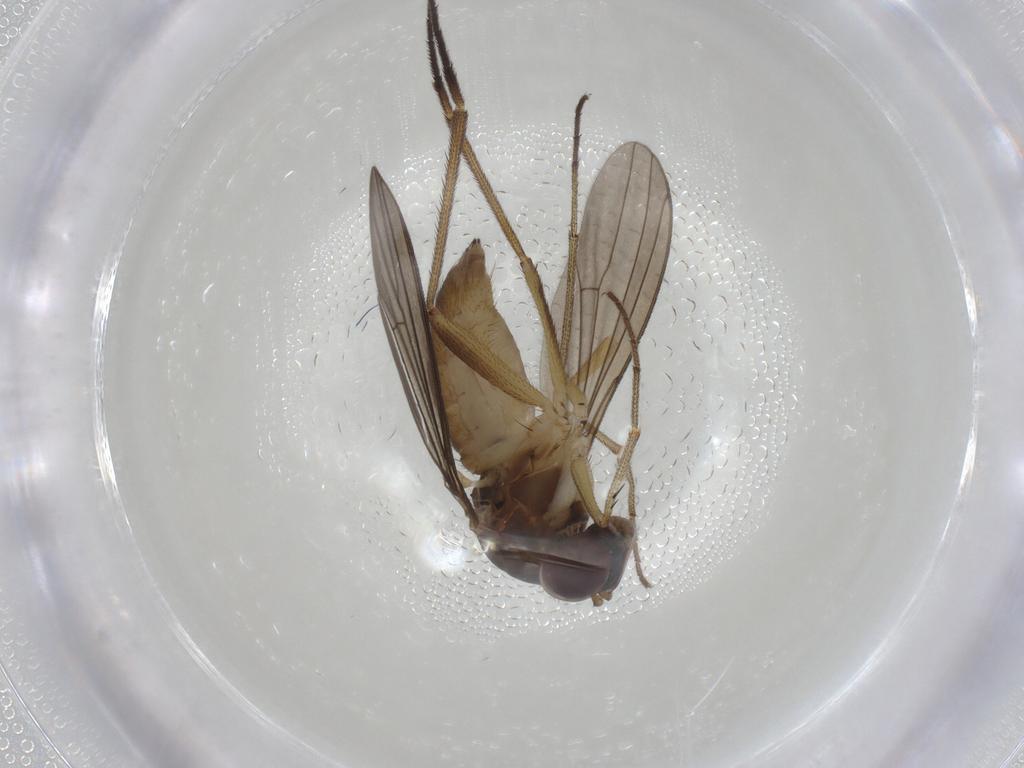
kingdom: Animalia
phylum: Arthropoda
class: Insecta
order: Diptera
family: Dolichopodidae
